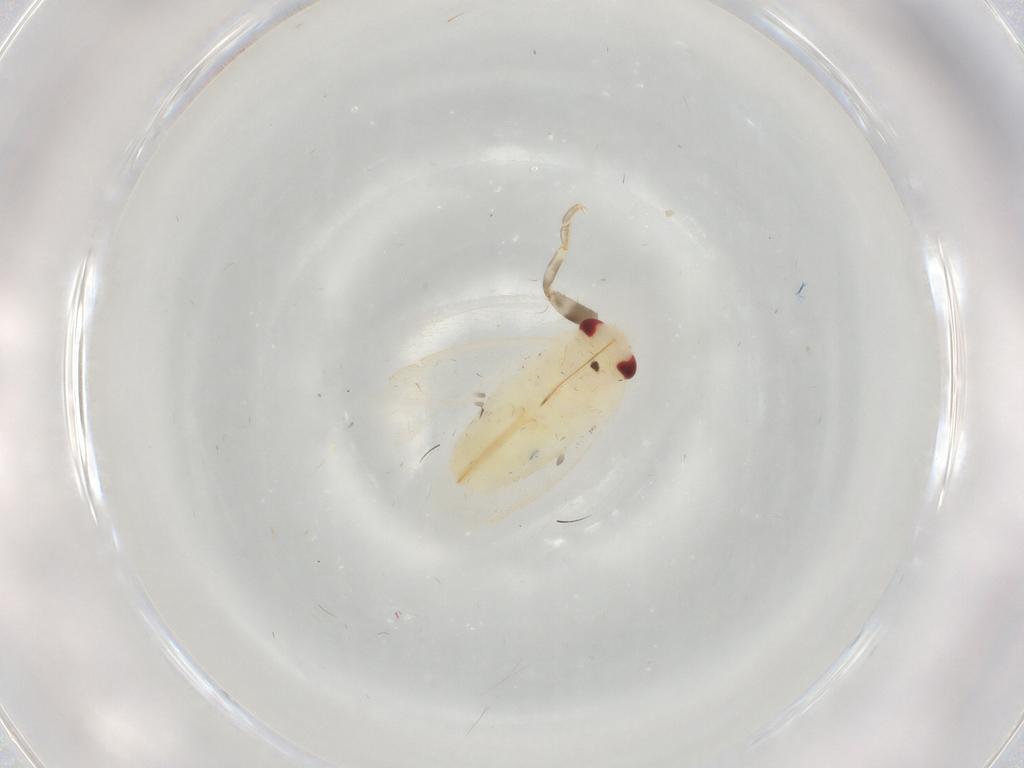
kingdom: Animalia
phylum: Arthropoda
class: Insecta
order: Hemiptera
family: Miridae
